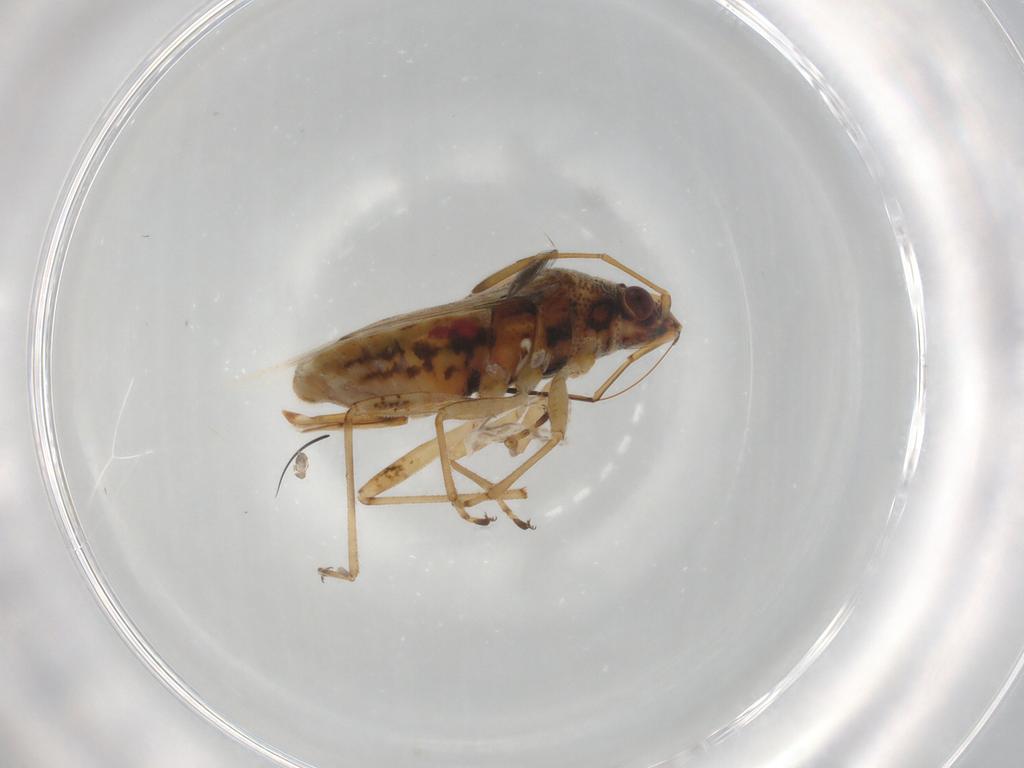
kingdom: Animalia
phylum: Arthropoda
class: Insecta
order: Hemiptera
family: Lygaeidae
